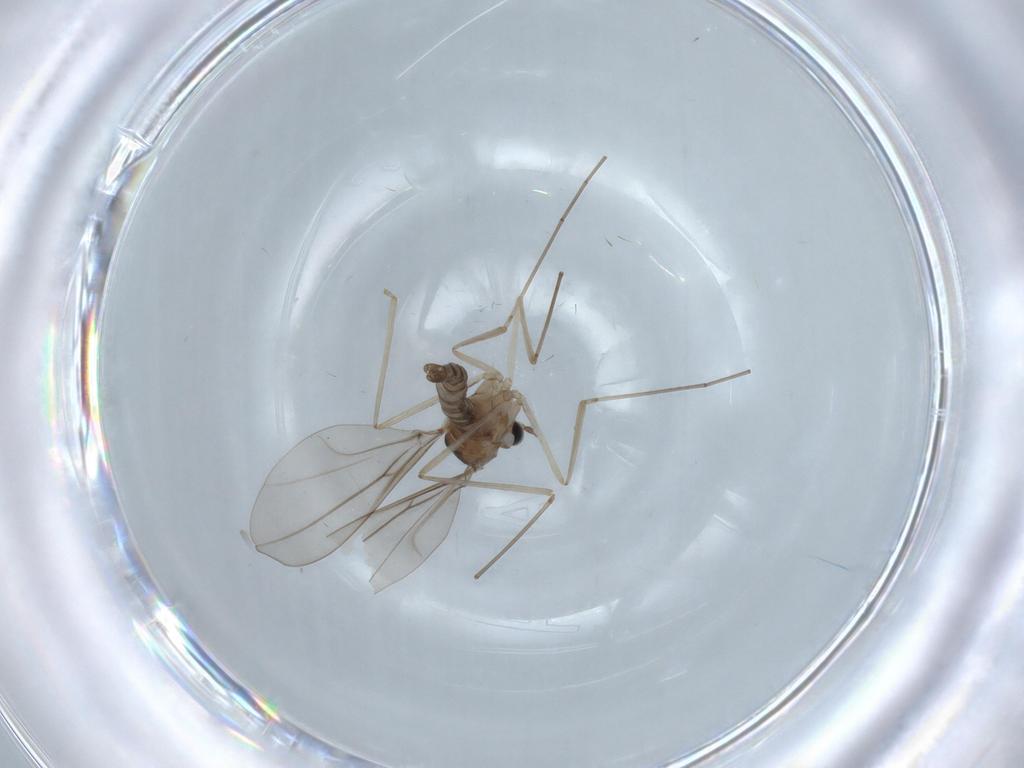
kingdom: Animalia
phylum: Arthropoda
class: Insecta
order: Diptera
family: Cecidomyiidae
